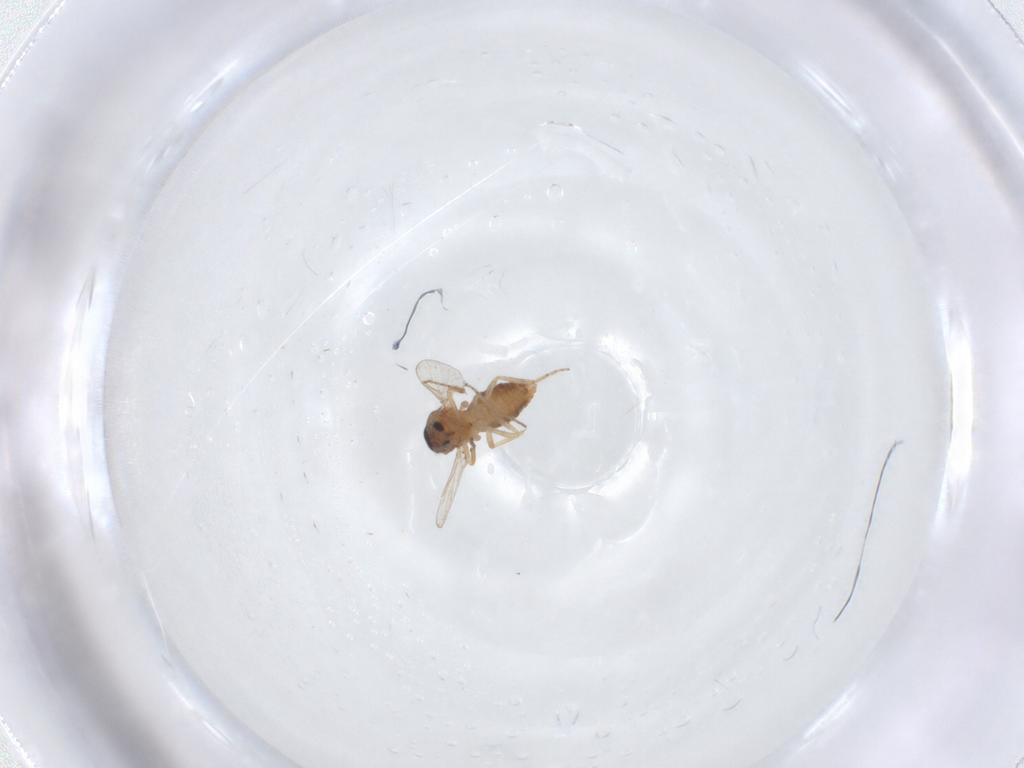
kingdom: Animalia
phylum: Arthropoda
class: Insecta
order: Diptera
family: Ceratopogonidae
